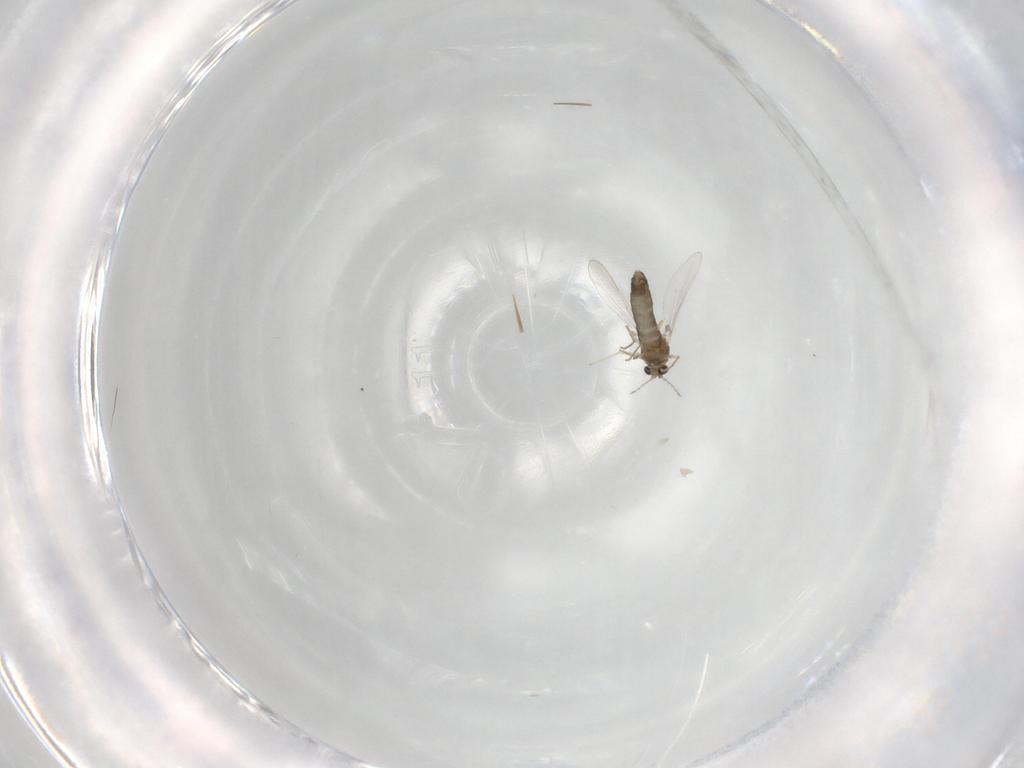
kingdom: Animalia
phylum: Arthropoda
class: Insecta
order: Diptera
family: Chironomidae
